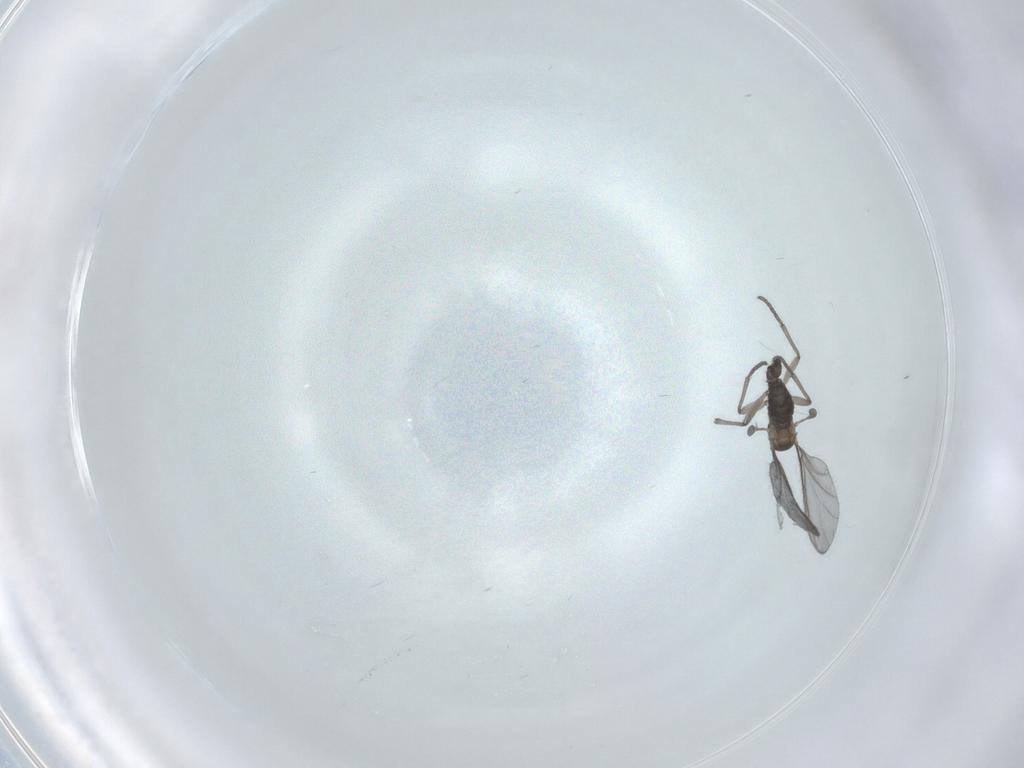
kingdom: Animalia
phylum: Arthropoda
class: Insecta
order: Diptera
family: Sciaridae
